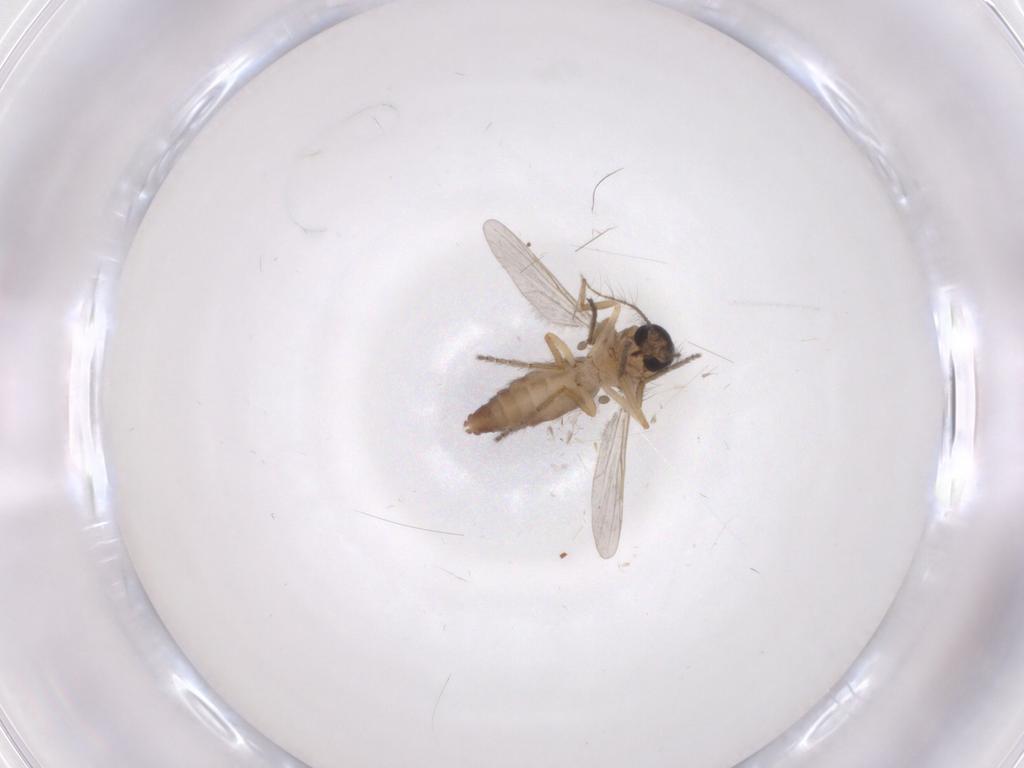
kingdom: Animalia
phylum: Arthropoda
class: Insecta
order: Diptera
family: Ceratopogonidae
